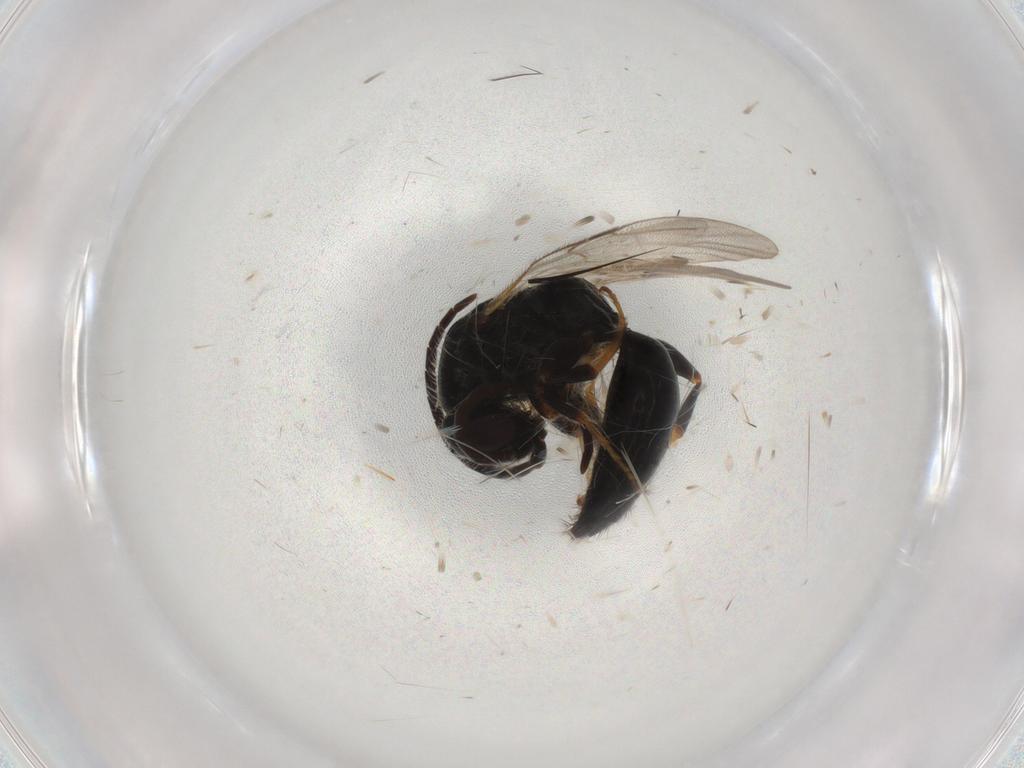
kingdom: Animalia
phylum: Arthropoda
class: Insecta
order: Hymenoptera
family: Bethylidae
